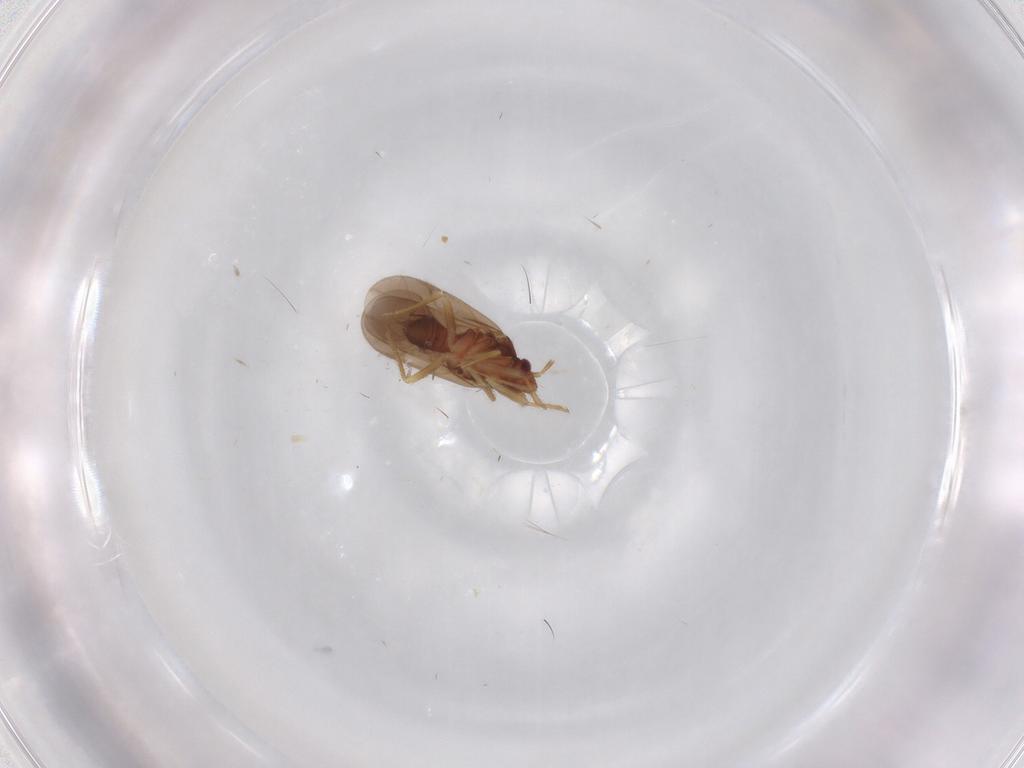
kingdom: Animalia
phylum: Arthropoda
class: Insecta
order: Hemiptera
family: Ceratocombidae
